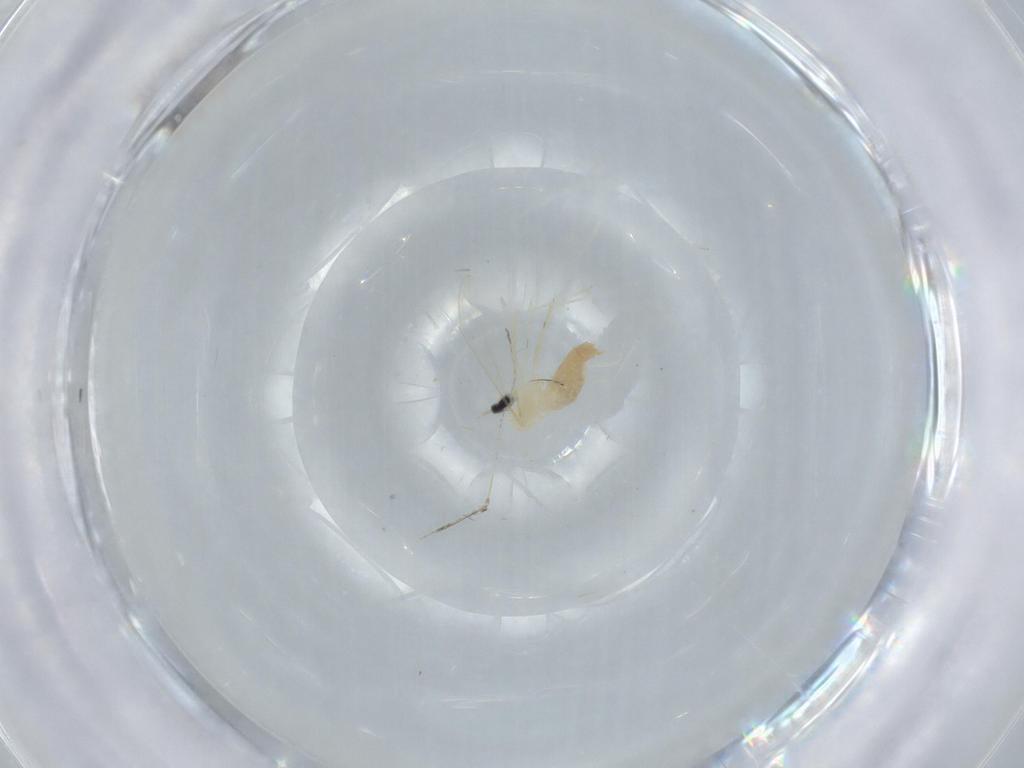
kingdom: Animalia
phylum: Arthropoda
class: Insecta
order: Diptera
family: Cecidomyiidae
